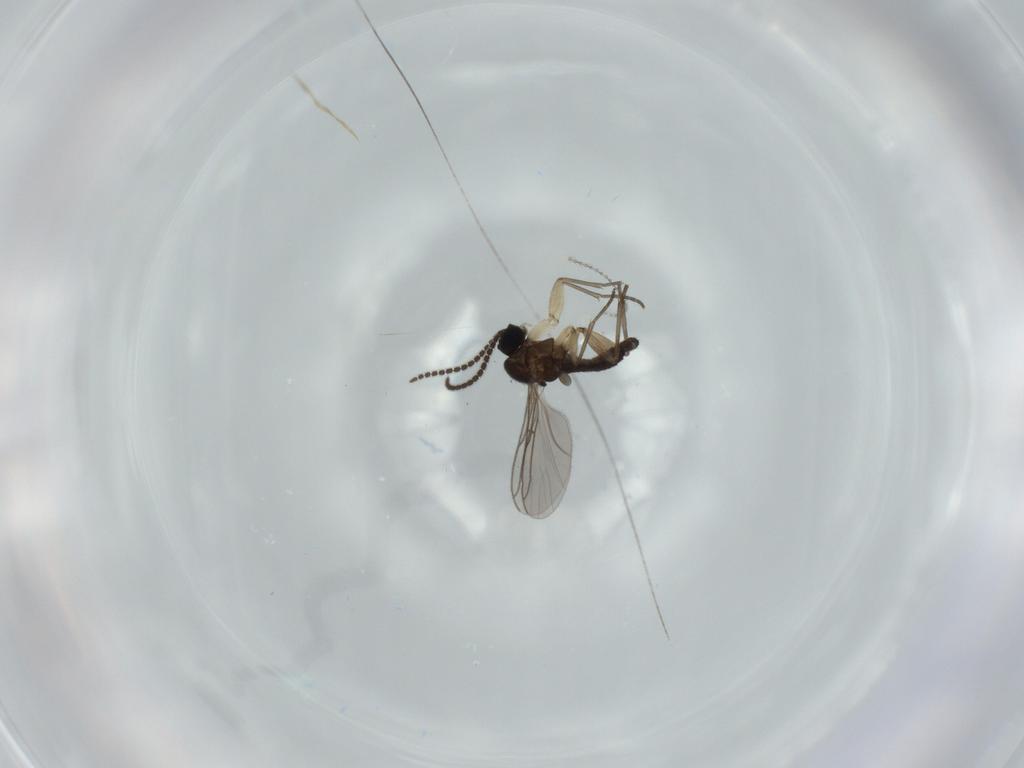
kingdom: Animalia
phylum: Arthropoda
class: Insecta
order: Diptera
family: Sciaridae
